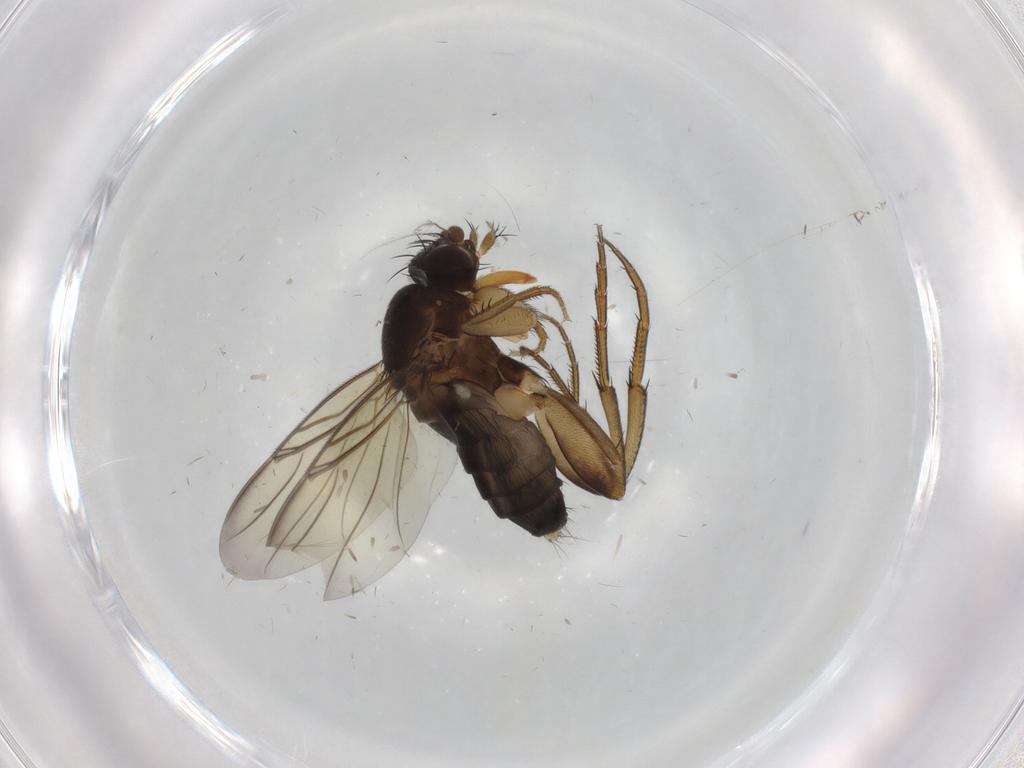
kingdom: Animalia
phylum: Arthropoda
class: Insecta
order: Diptera
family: Phoridae
